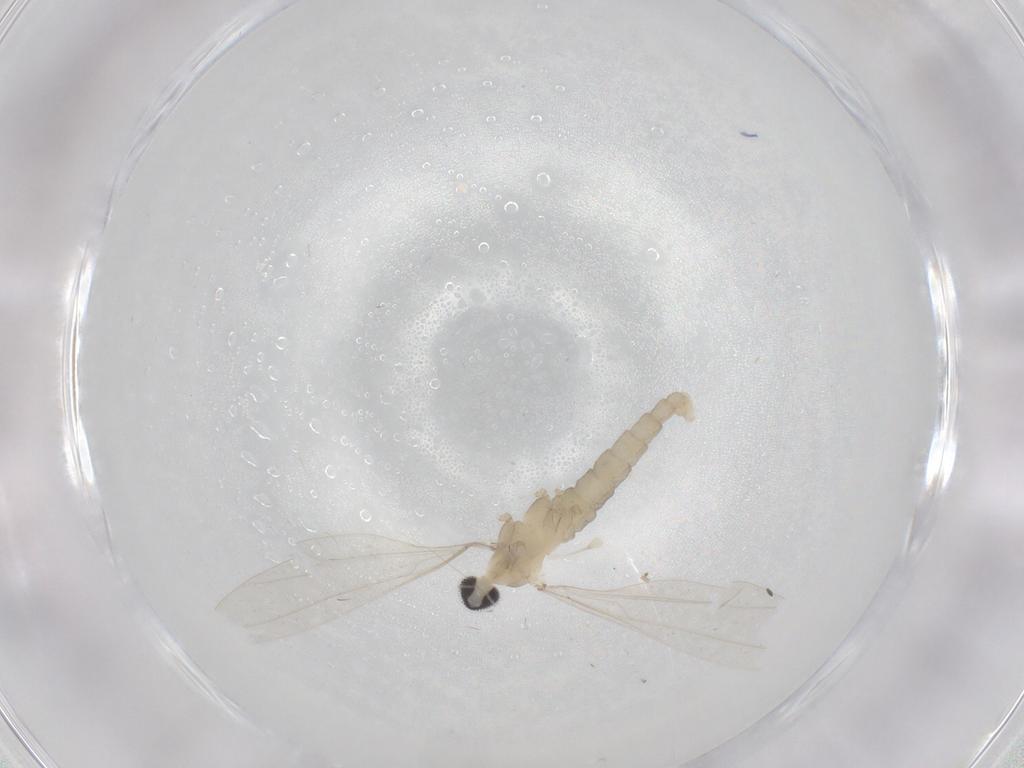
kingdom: Animalia
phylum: Arthropoda
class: Insecta
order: Diptera
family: Cecidomyiidae
